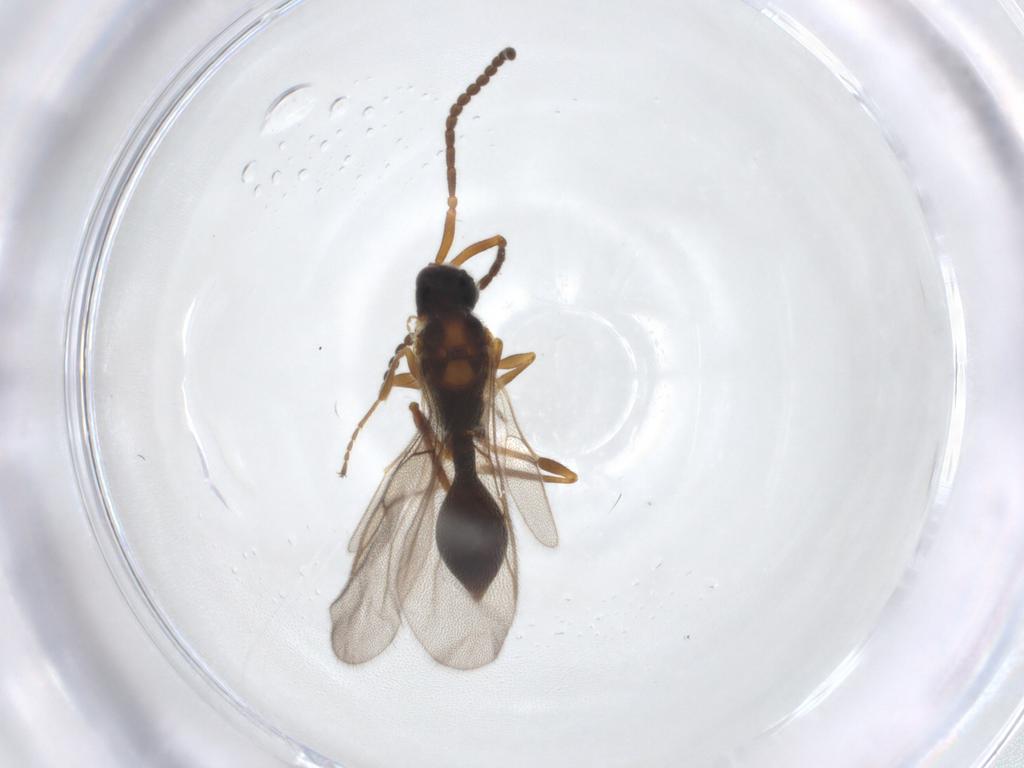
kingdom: Animalia
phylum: Arthropoda
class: Insecta
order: Hymenoptera
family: Diapriidae
